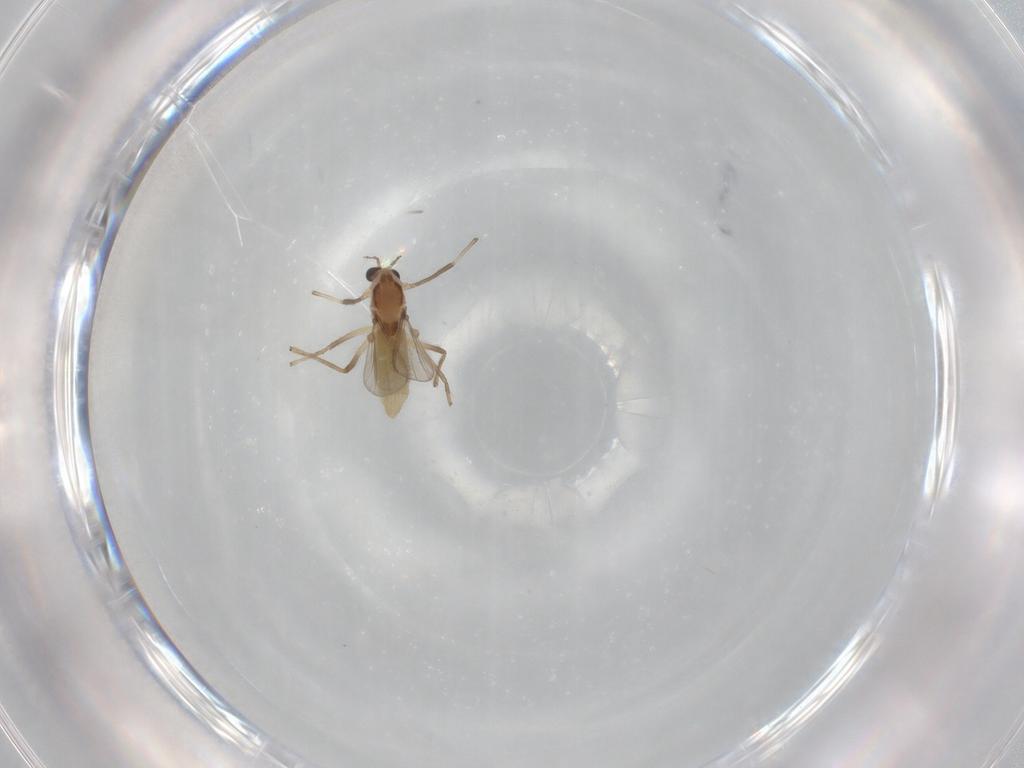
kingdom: Animalia
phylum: Arthropoda
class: Insecta
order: Diptera
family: Chironomidae
